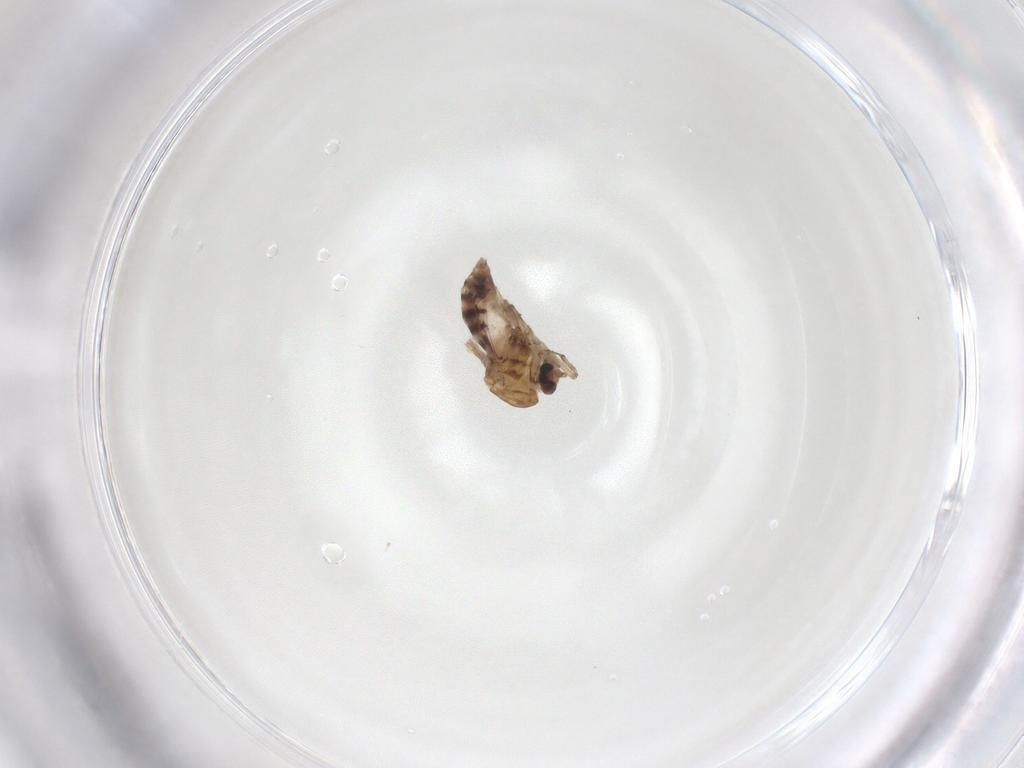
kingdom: Animalia
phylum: Arthropoda
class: Insecta
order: Diptera
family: Ceratopogonidae
